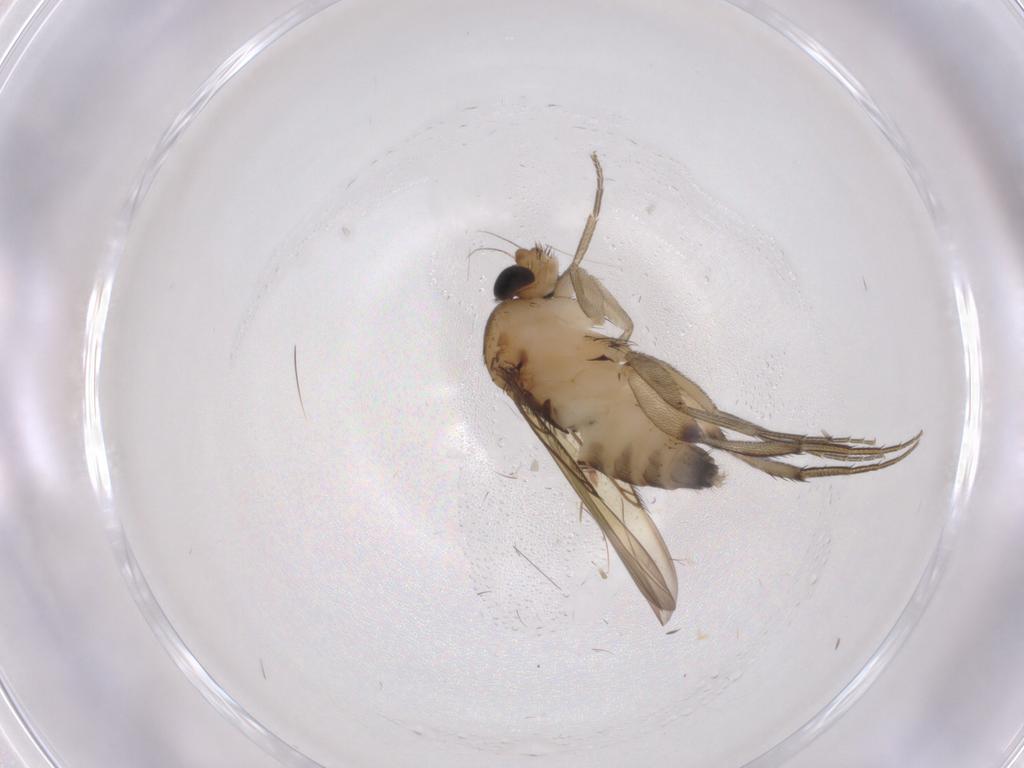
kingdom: Animalia
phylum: Arthropoda
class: Insecta
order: Diptera
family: Phoridae
